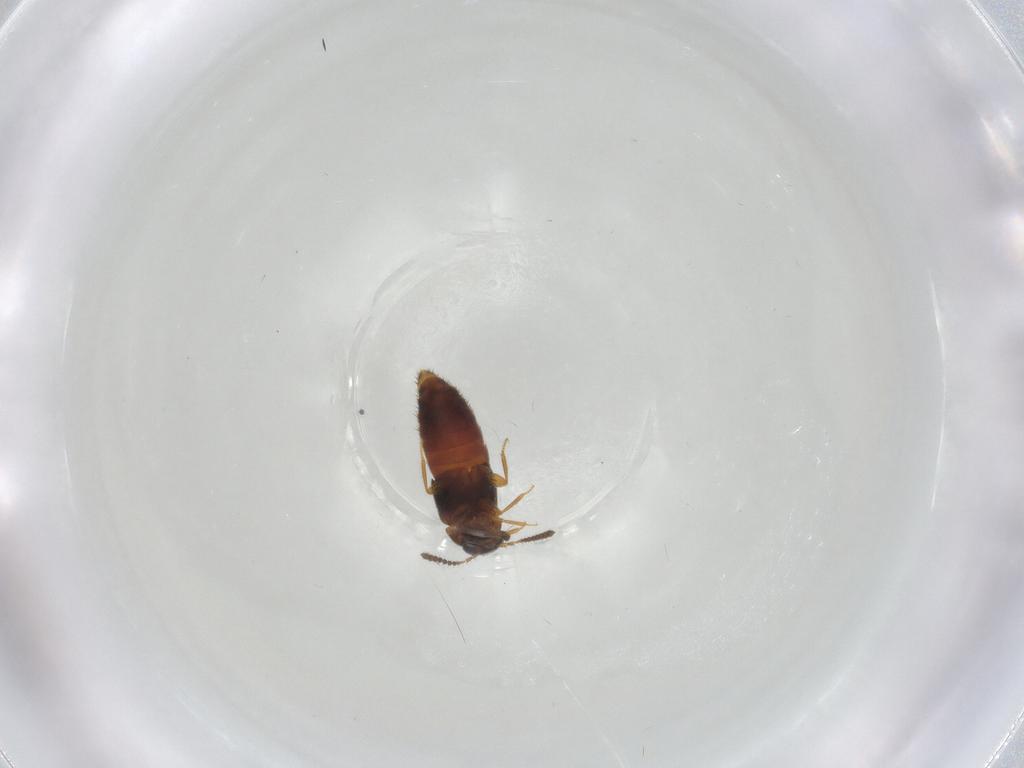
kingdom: Animalia
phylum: Arthropoda
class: Insecta
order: Coleoptera
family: Staphylinidae
